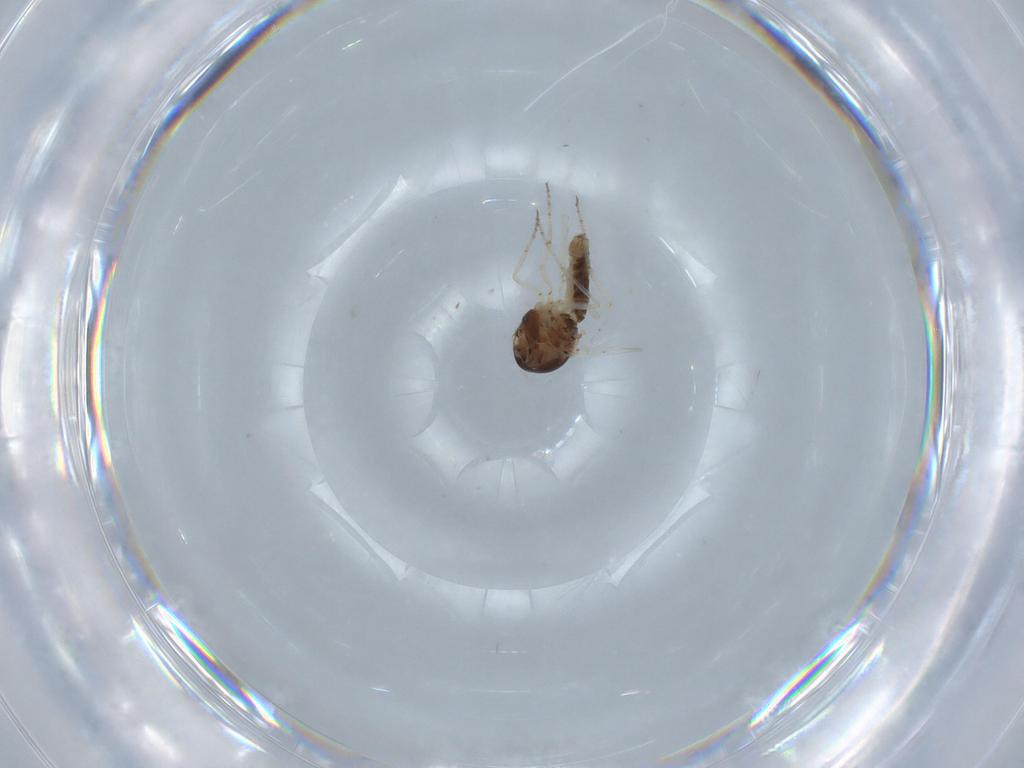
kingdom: Animalia
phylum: Arthropoda
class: Insecta
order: Diptera
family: Ceratopogonidae
